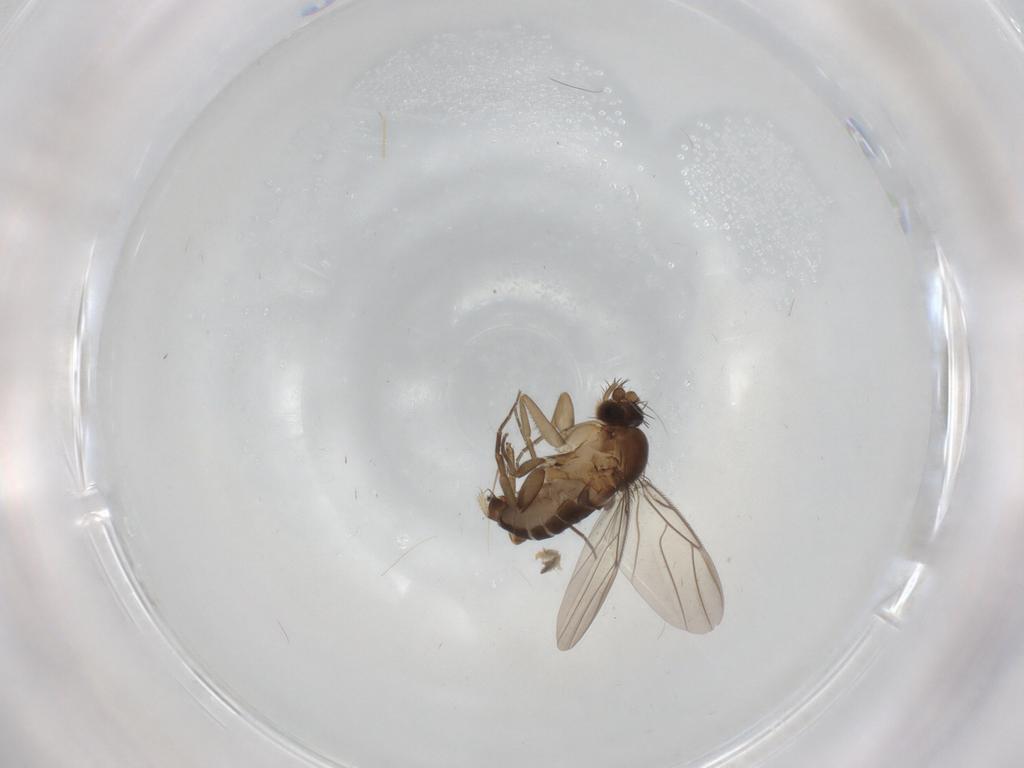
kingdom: Animalia
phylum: Arthropoda
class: Insecta
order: Diptera
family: Phoridae
